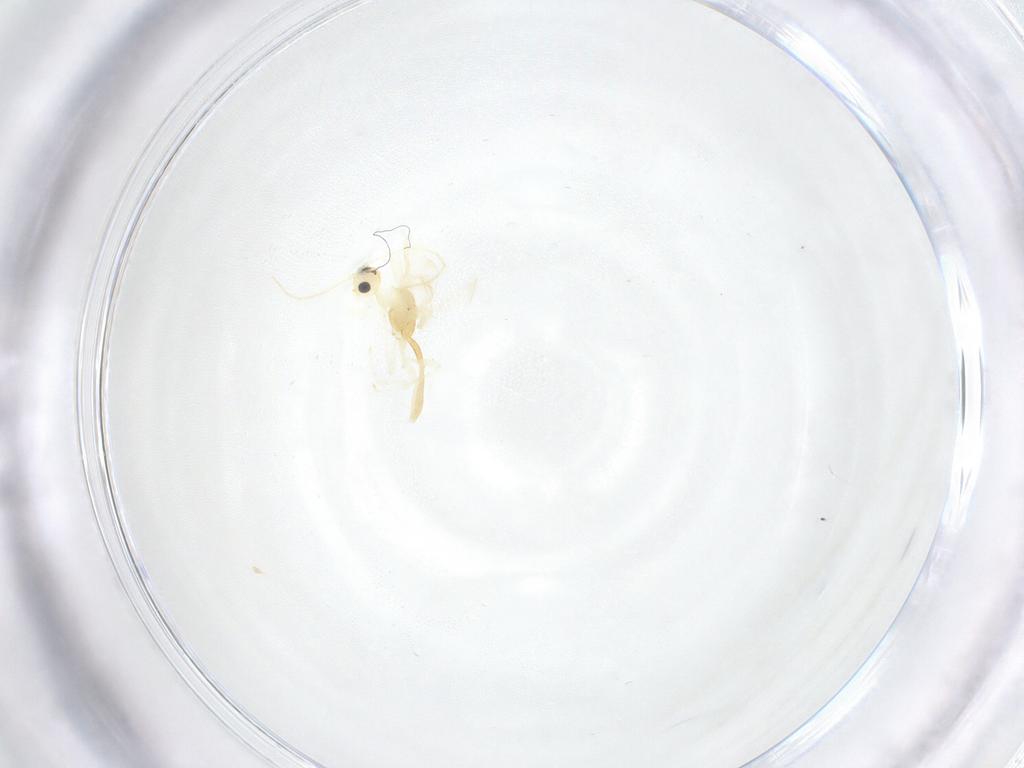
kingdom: Animalia
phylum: Arthropoda
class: Insecta
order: Hymenoptera
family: Braconidae
